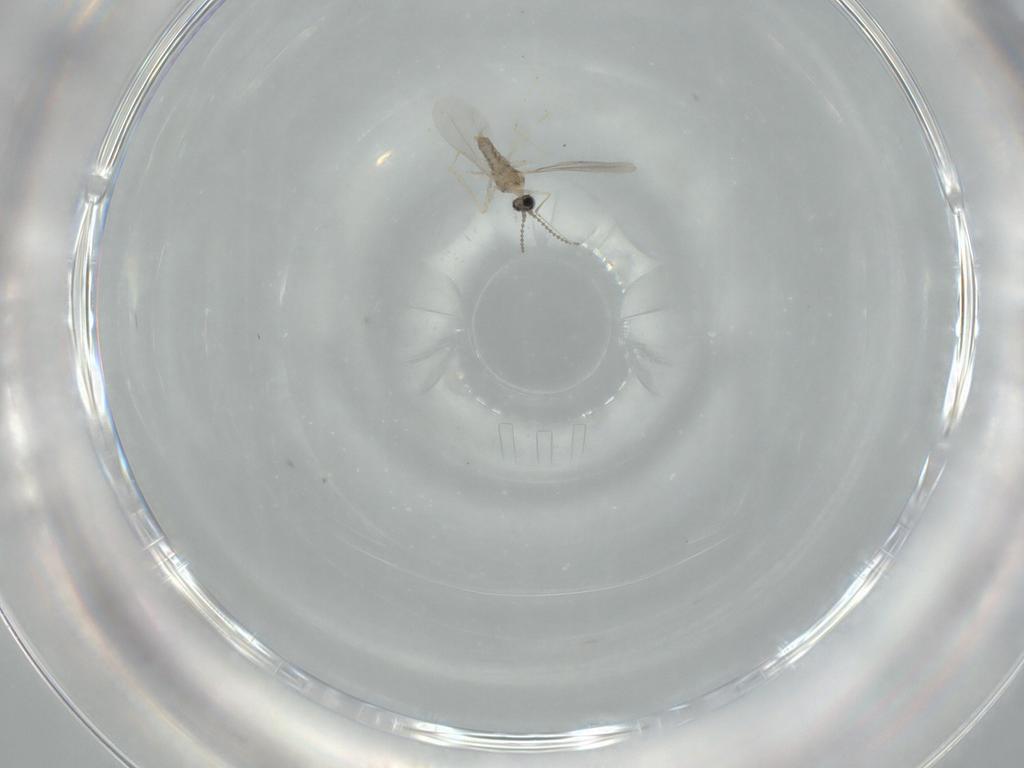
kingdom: Animalia
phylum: Arthropoda
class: Insecta
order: Diptera
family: Cecidomyiidae
